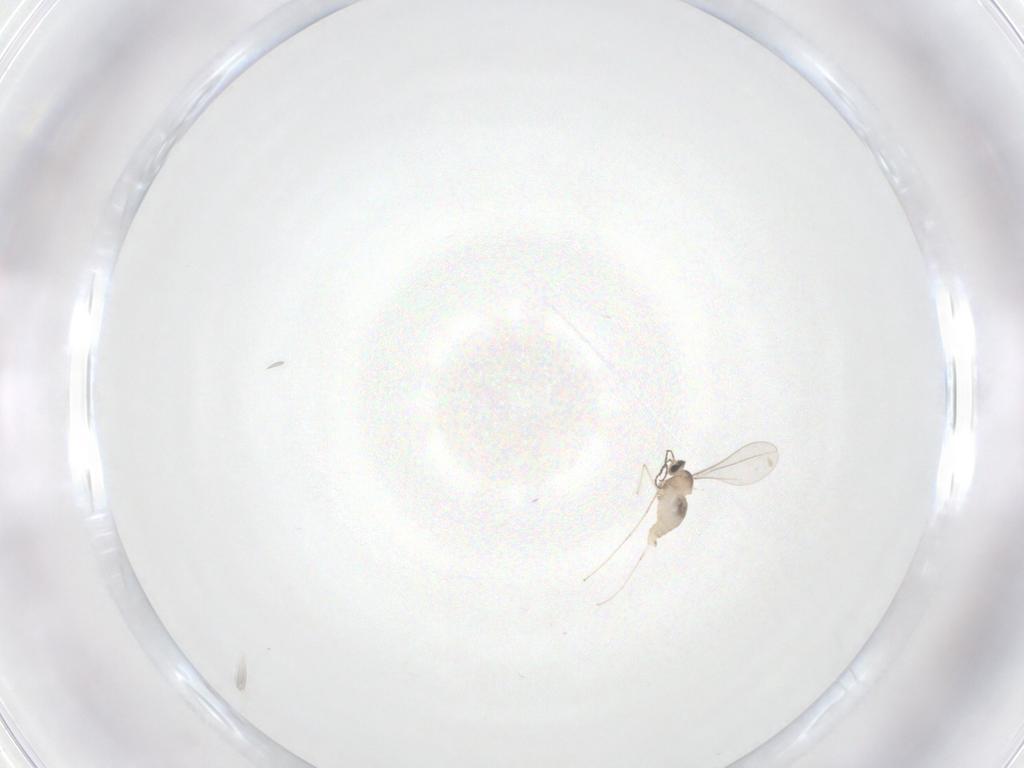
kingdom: Animalia
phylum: Arthropoda
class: Insecta
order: Diptera
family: Cecidomyiidae
